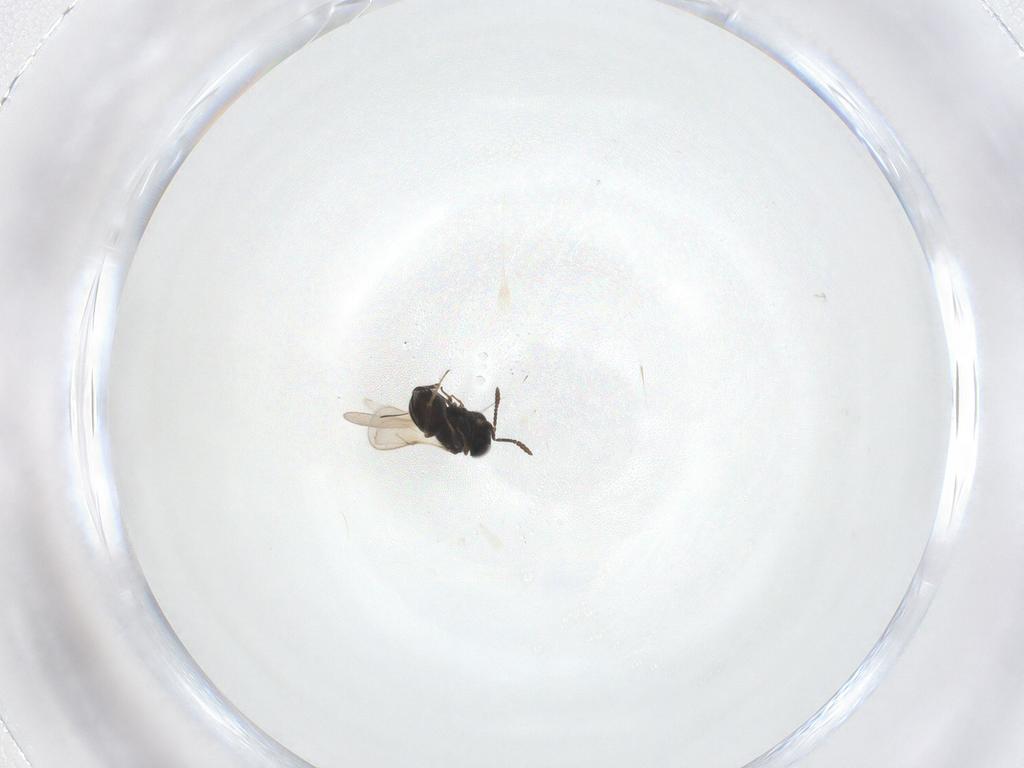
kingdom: Animalia
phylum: Arthropoda
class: Insecta
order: Hymenoptera
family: Scelionidae
